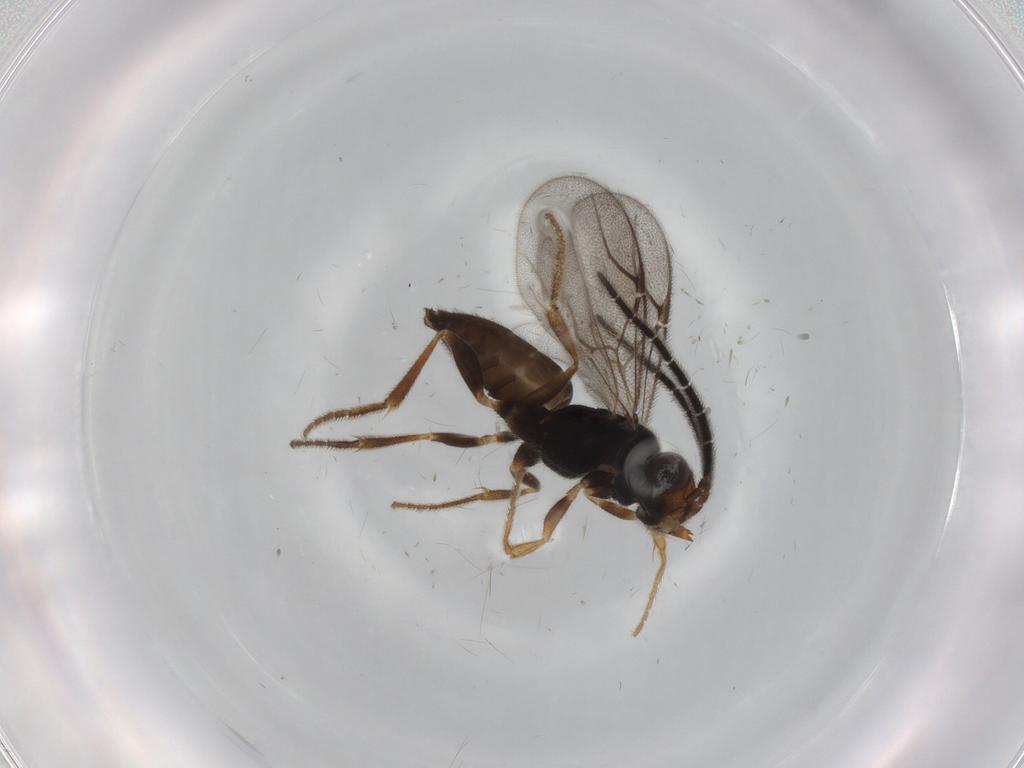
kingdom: Animalia
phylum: Arthropoda
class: Insecta
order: Hymenoptera
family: Dryinidae
